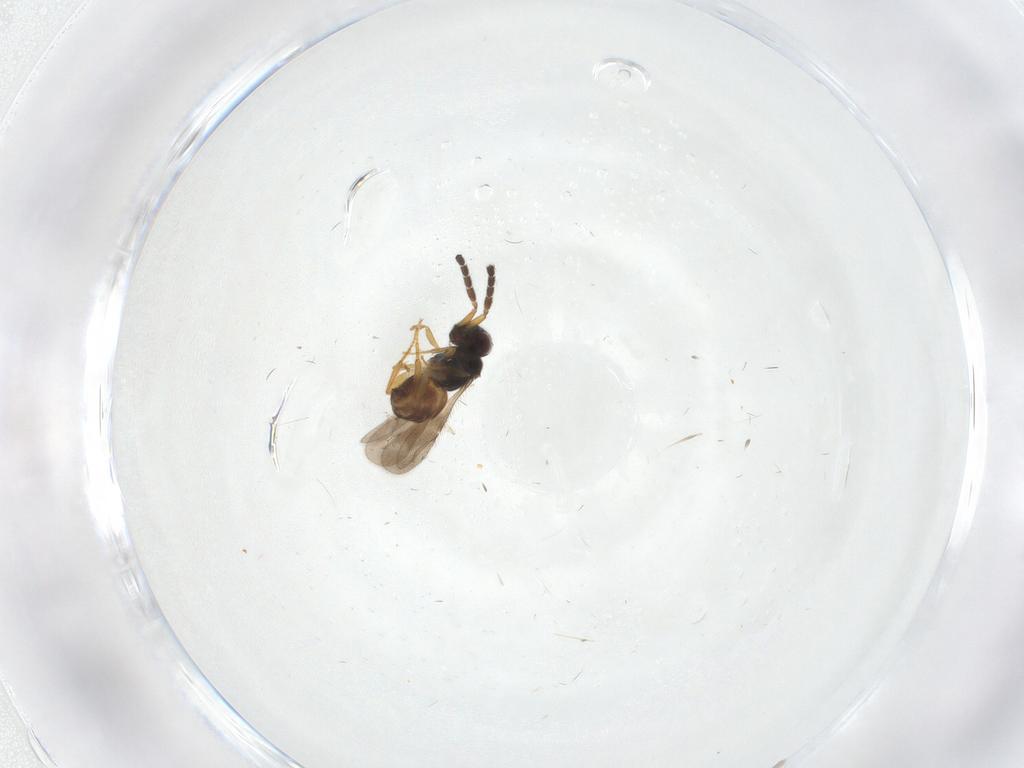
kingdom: Animalia
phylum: Arthropoda
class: Insecta
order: Hymenoptera
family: Ceraphronidae
